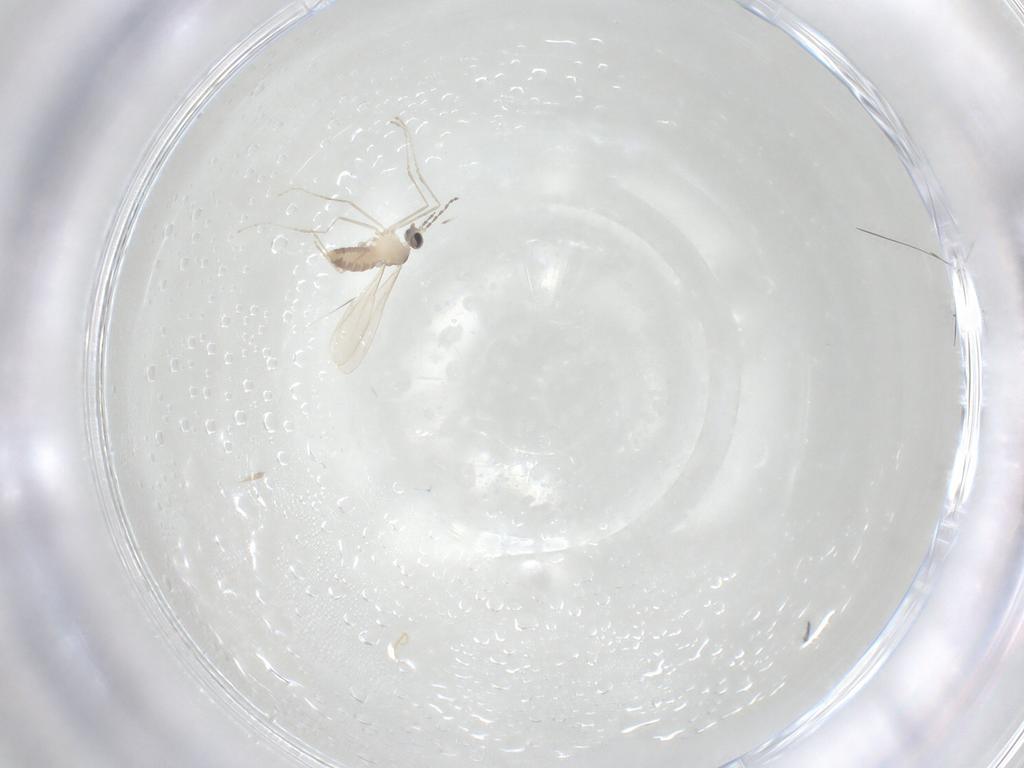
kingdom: Animalia
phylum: Arthropoda
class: Insecta
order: Diptera
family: Cecidomyiidae
